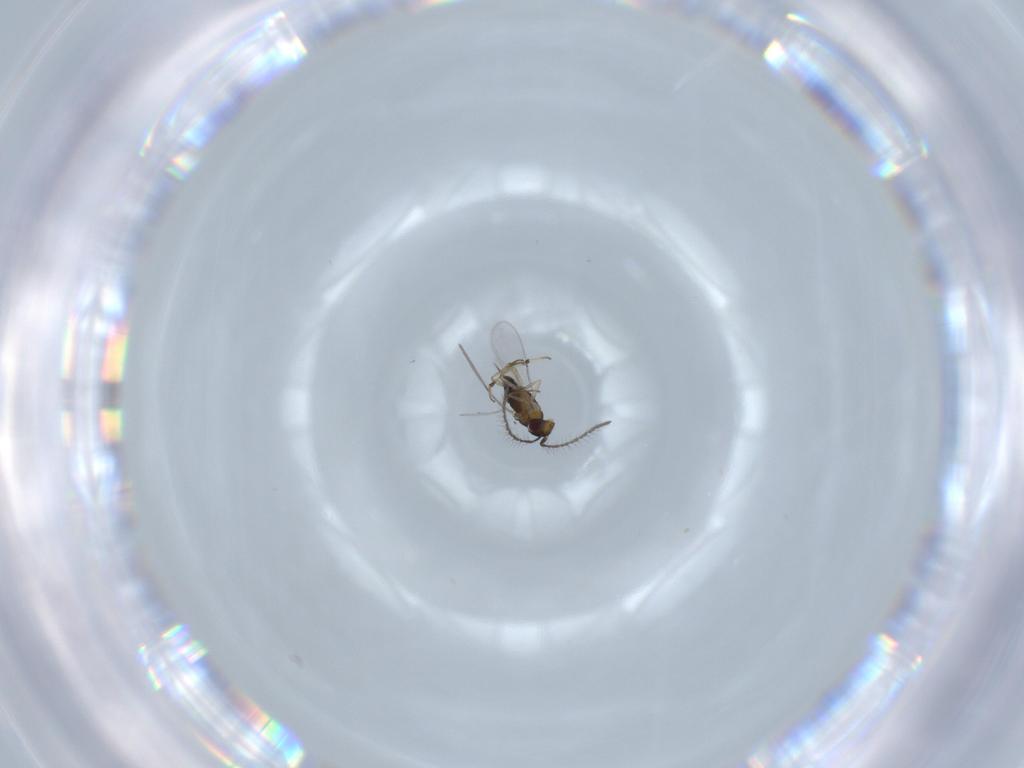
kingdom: Animalia
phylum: Arthropoda
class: Insecta
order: Hymenoptera
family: Diapriidae
